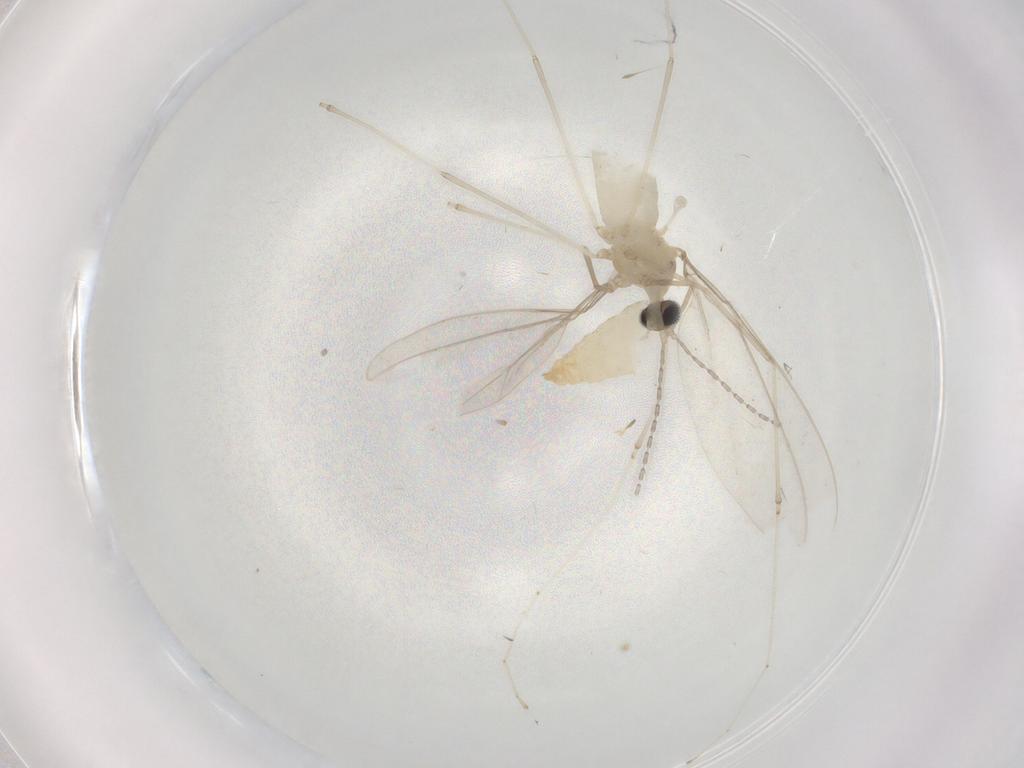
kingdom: Animalia
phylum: Arthropoda
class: Insecta
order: Diptera
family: Cecidomyiidae
